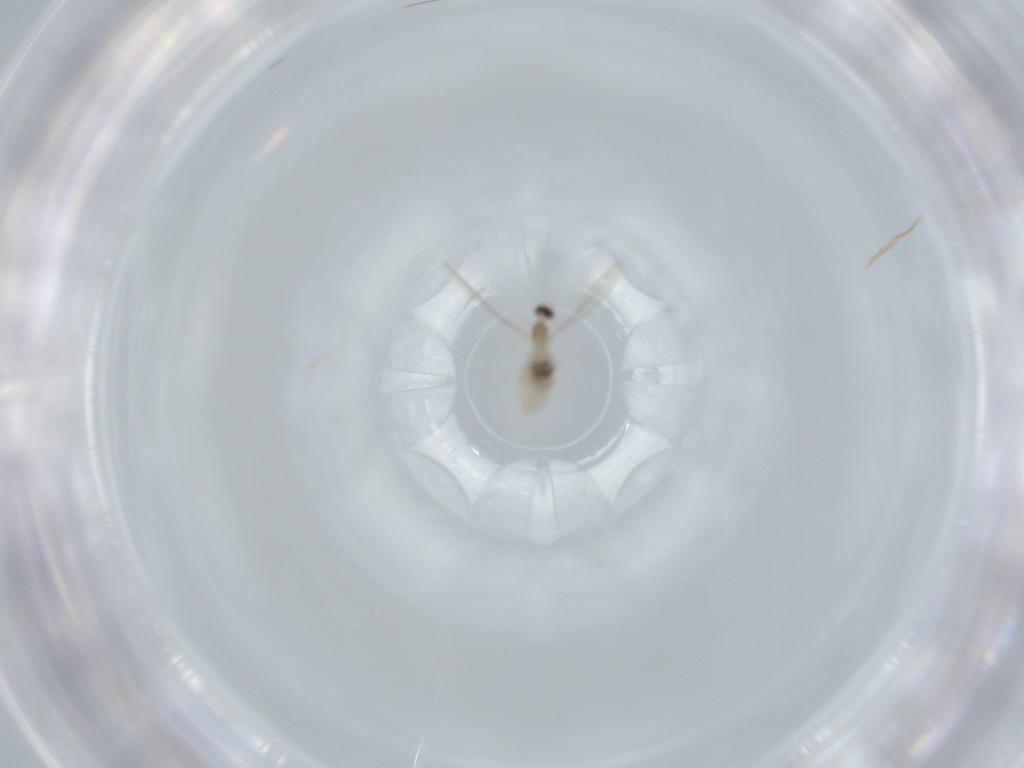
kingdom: Animalia
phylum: Arthropoda
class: Insecta
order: Diptera
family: Cecidomyiidae
